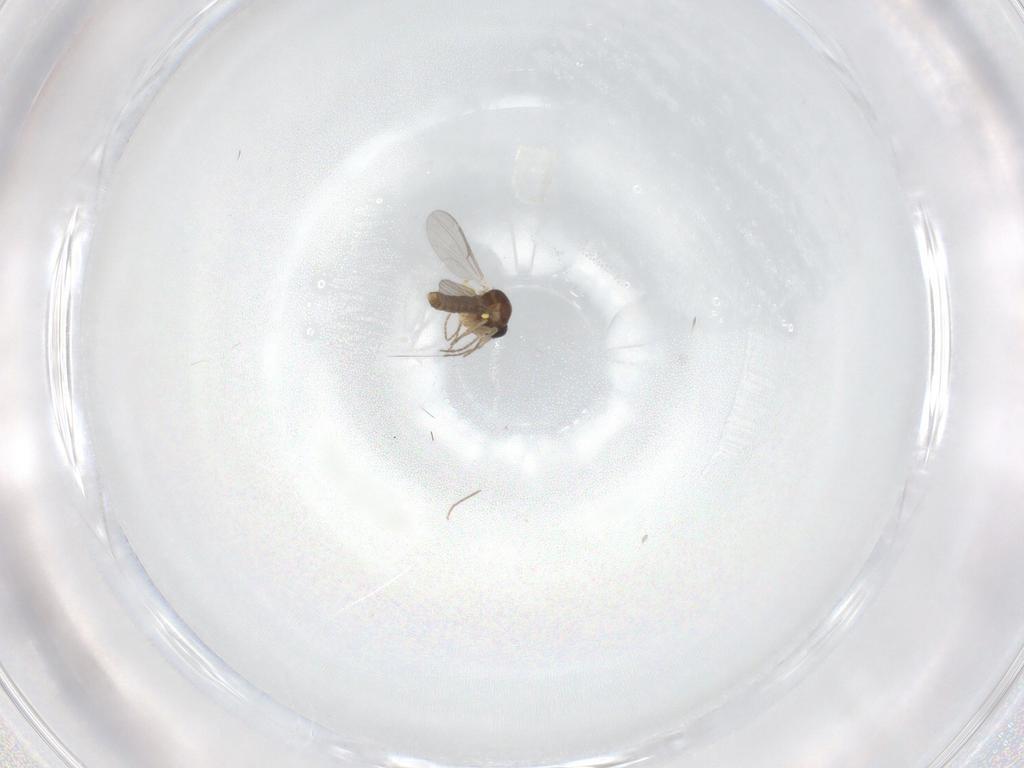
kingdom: Animalia
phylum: Arthropoda
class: Insecta
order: Diptera
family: Ceratopogonidae
